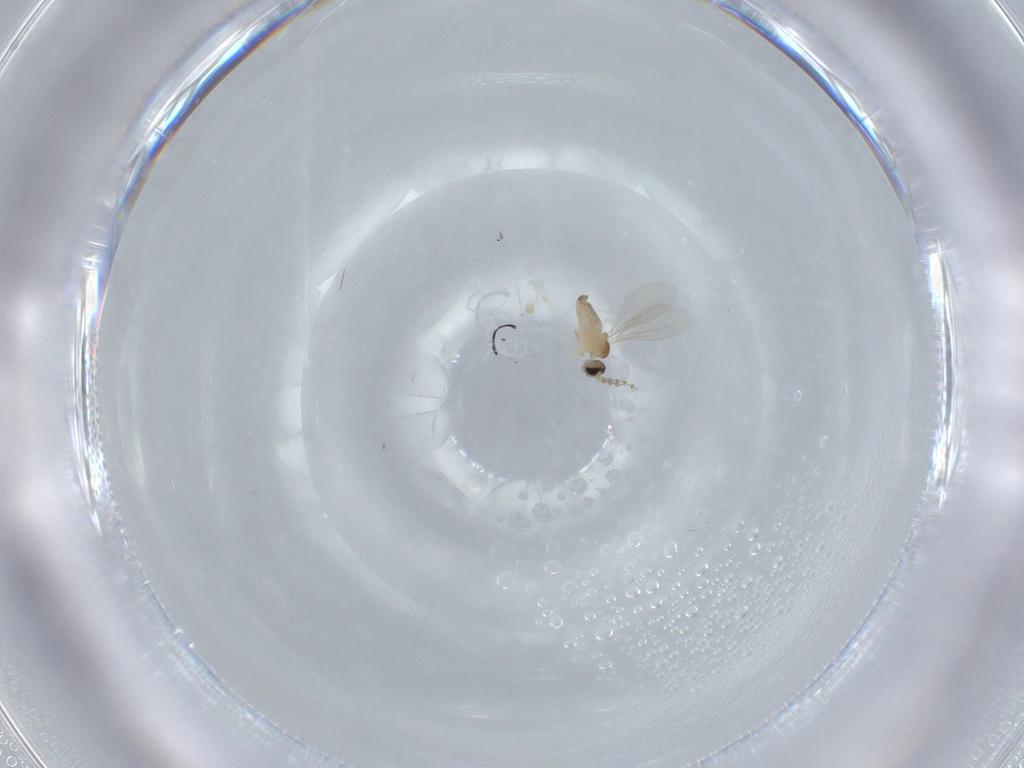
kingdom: Animalia
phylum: Arthropoda
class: Insecta
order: Diptera
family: Cecidomyiidae
